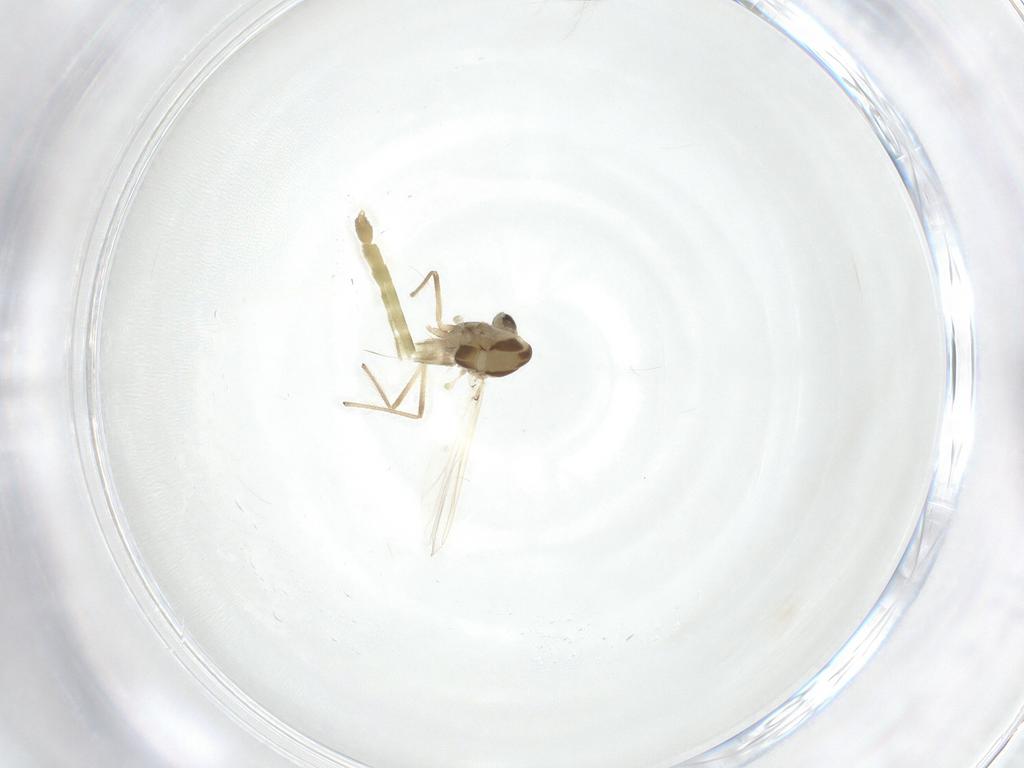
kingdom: Animalia
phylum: Arthropoda
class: Insecta
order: Diptera
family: Chironomidae
